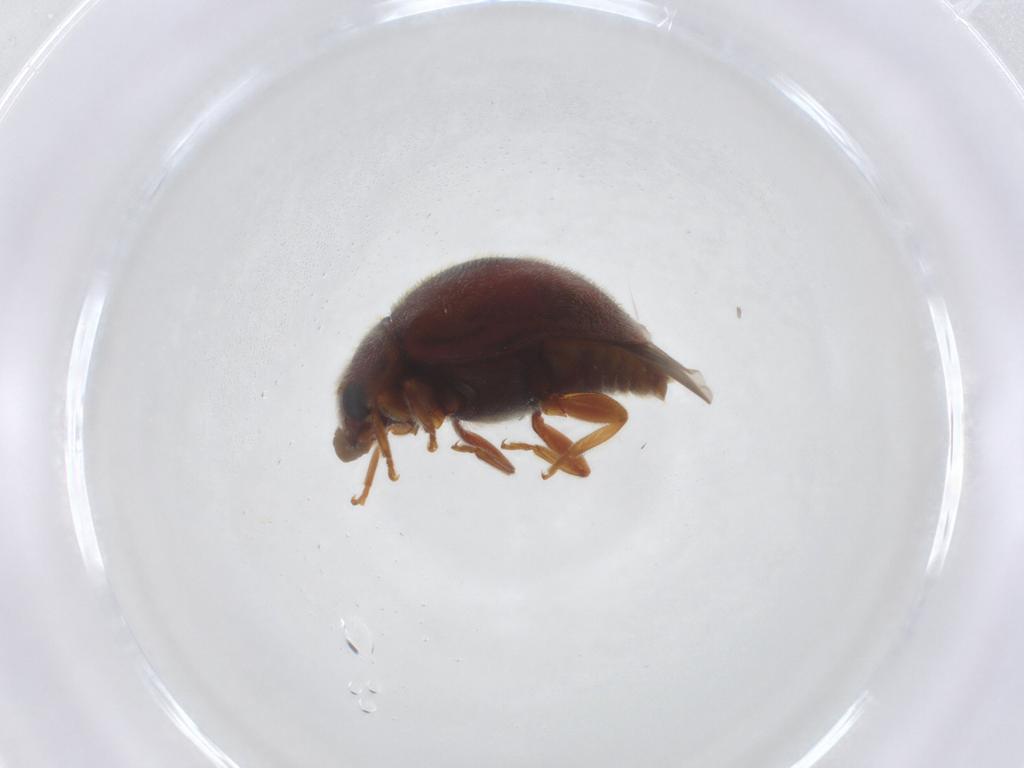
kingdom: Animalia
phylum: Arthropoda
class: Insecta
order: Coleoptera
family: Coccinellidae
